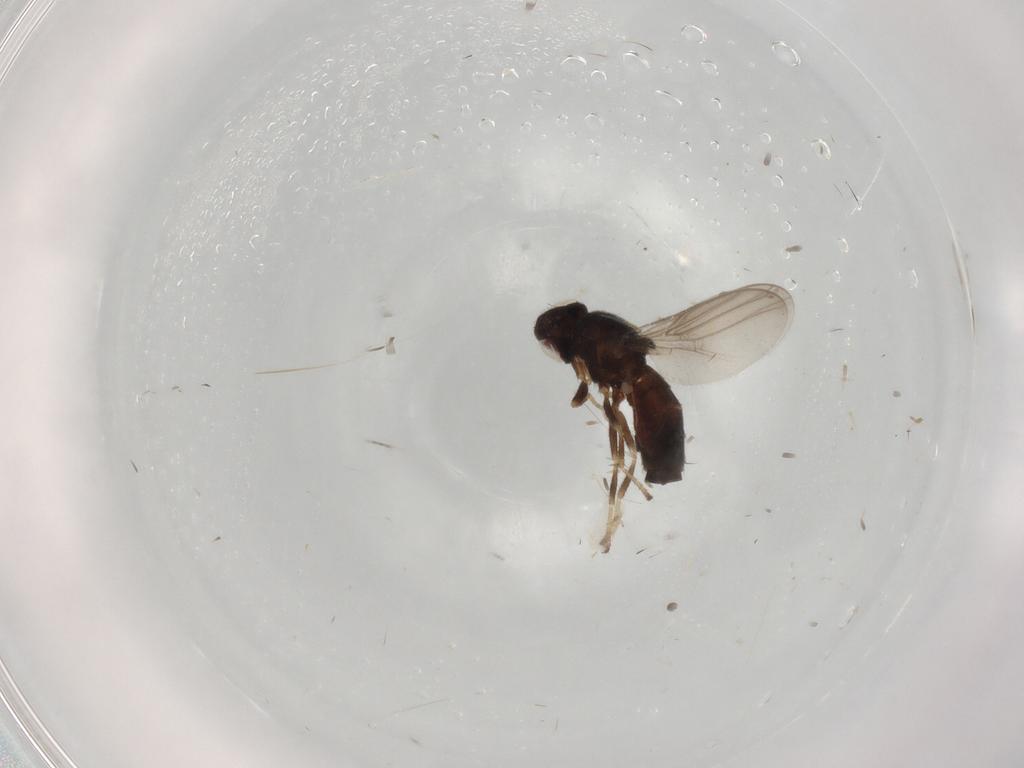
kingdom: Animalia
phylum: Arthropoda
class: Insecta
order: Diptera
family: Chloropidae
